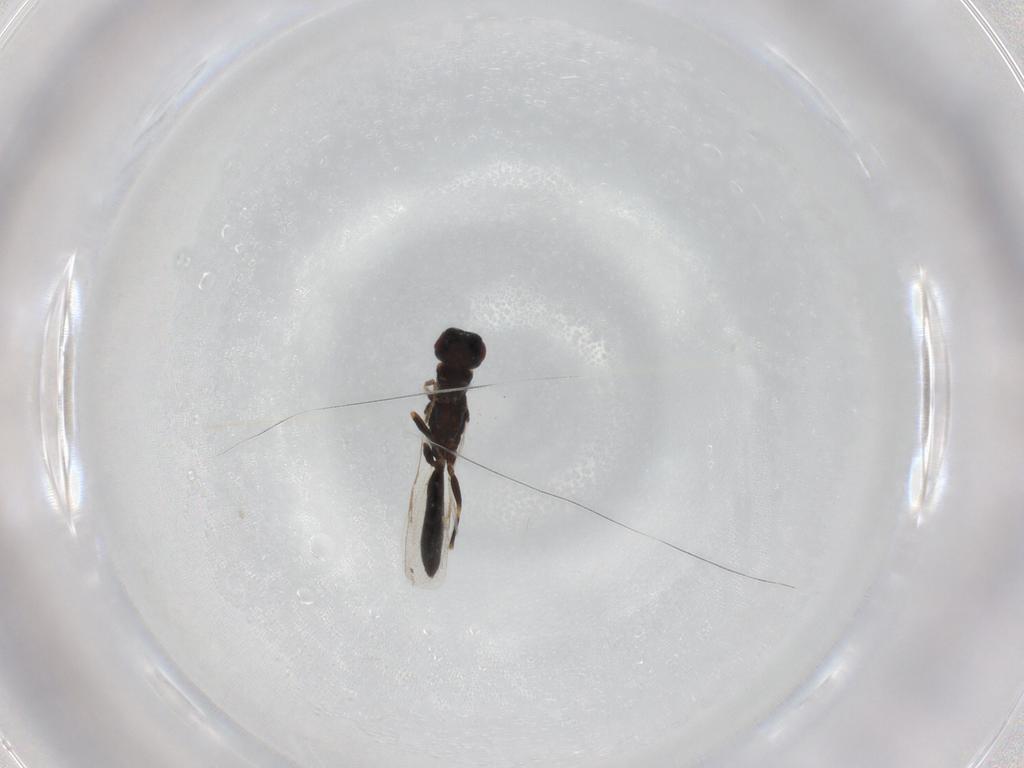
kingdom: Animalia
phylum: Arthropoda
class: Insecta
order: Hymenoptera
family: Eurytomidae
